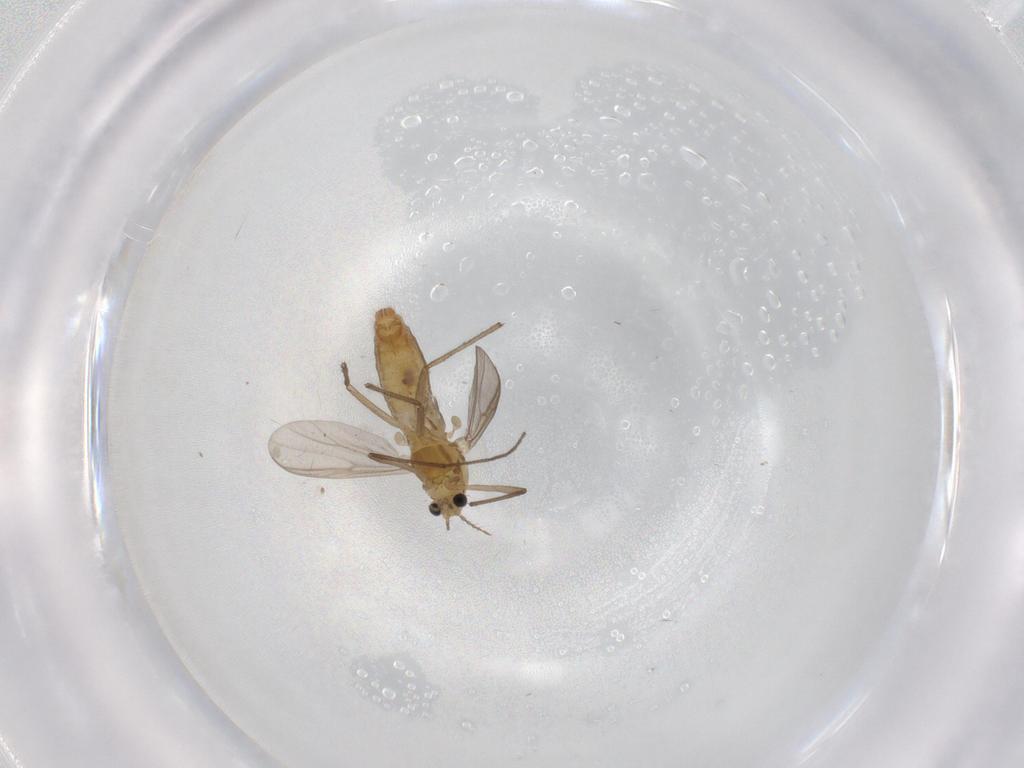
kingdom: Animalia
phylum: Arthropoda
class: Insecta
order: Diptera
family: Chironomidae
